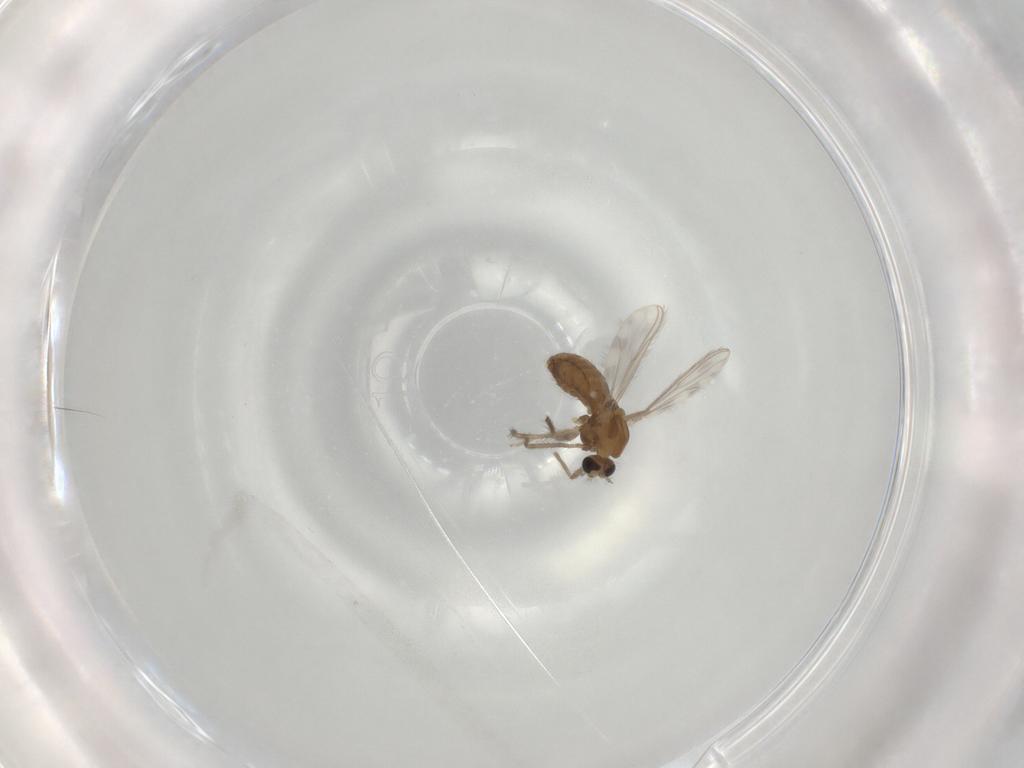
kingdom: Animalia
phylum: Arthropoda
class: Insecta
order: Diptera
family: Chironomidae
